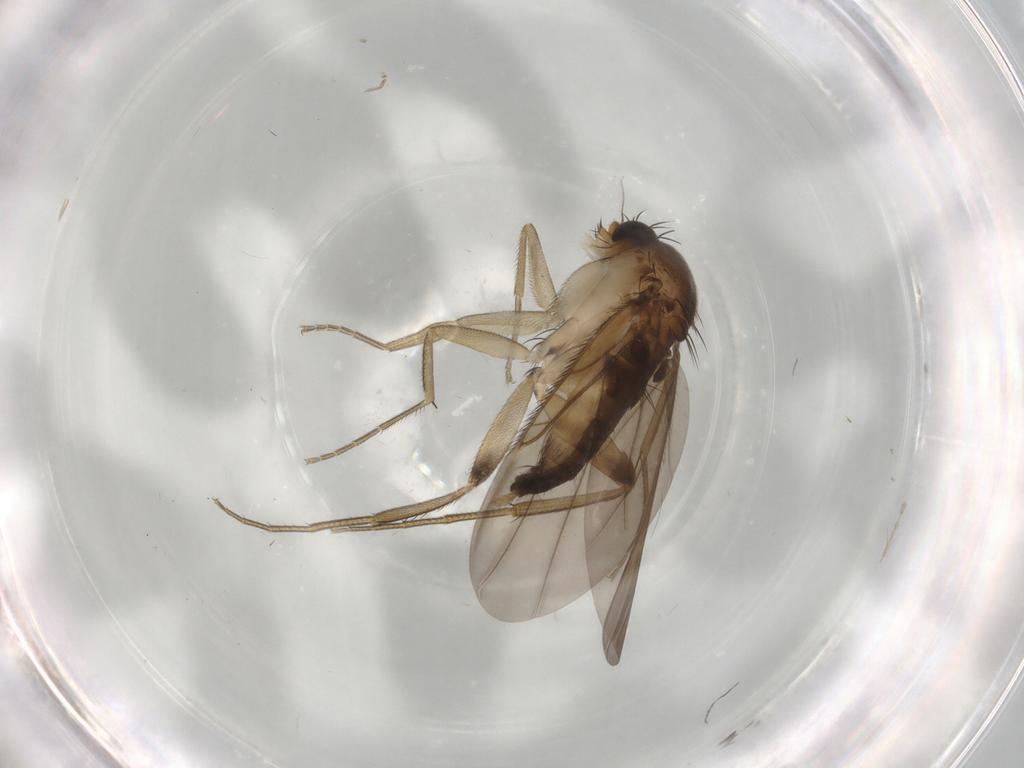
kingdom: Animalia
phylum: Arthropoda
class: Insecta
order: Diptera
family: Phoridae
